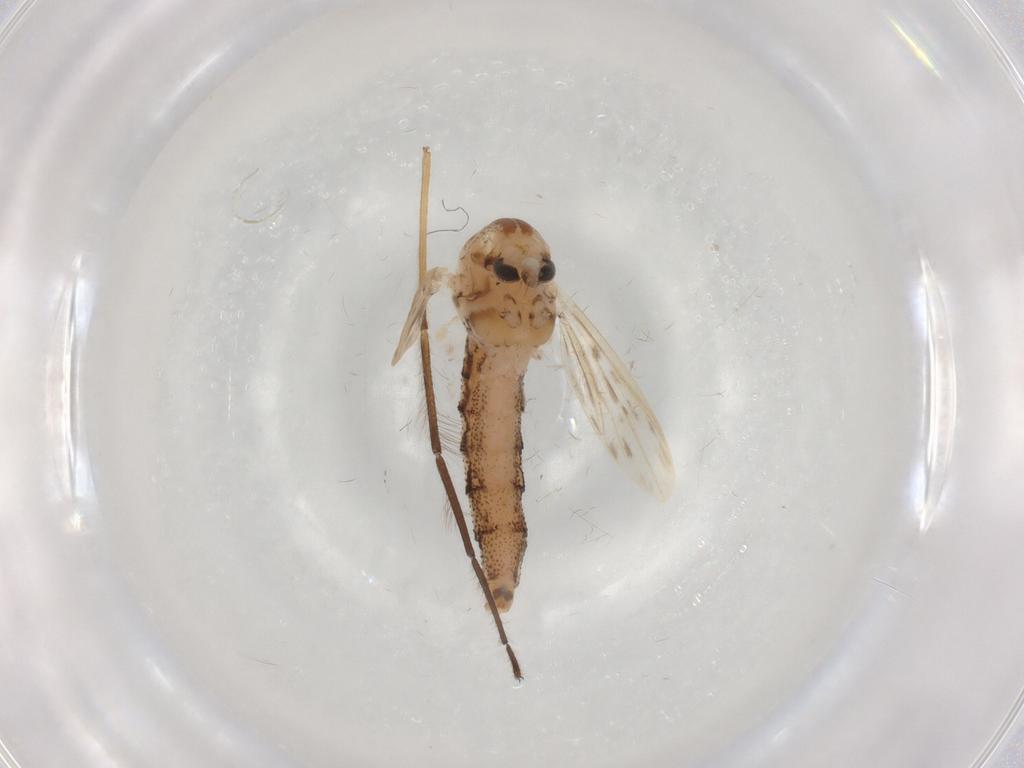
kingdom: Animalia
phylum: Arthropoda
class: Insecta
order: Diptera
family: Chaoboridae
